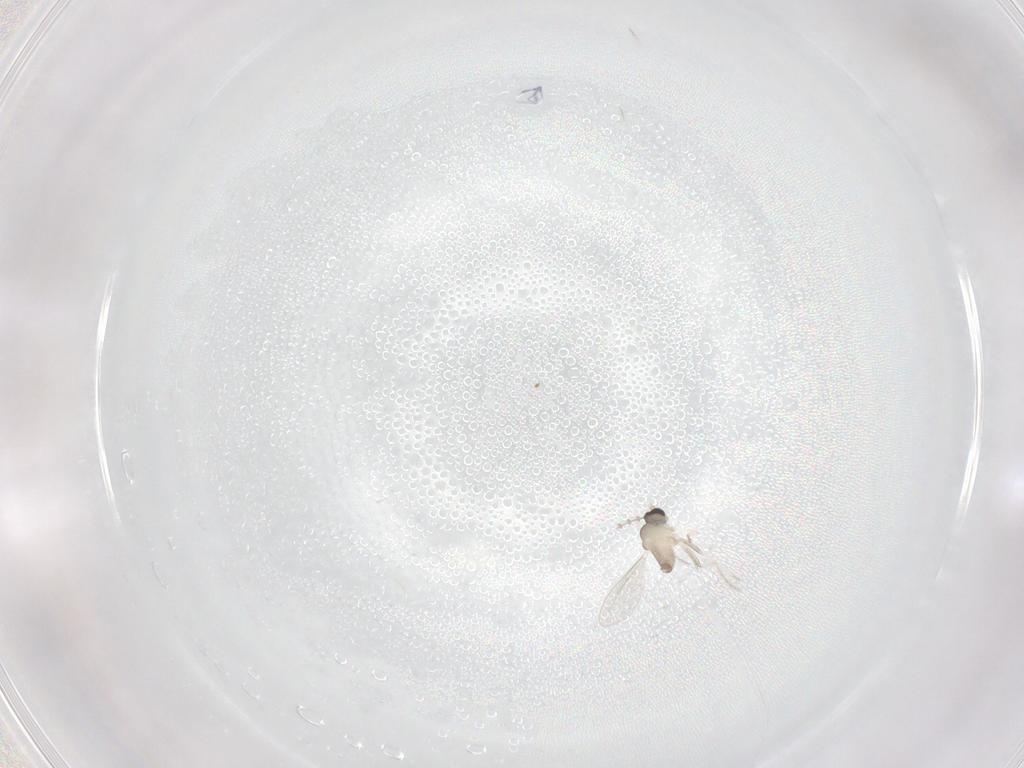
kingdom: Animalia
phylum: Arthropoda
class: Insecta
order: Diptera
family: Cecidomyiidae
